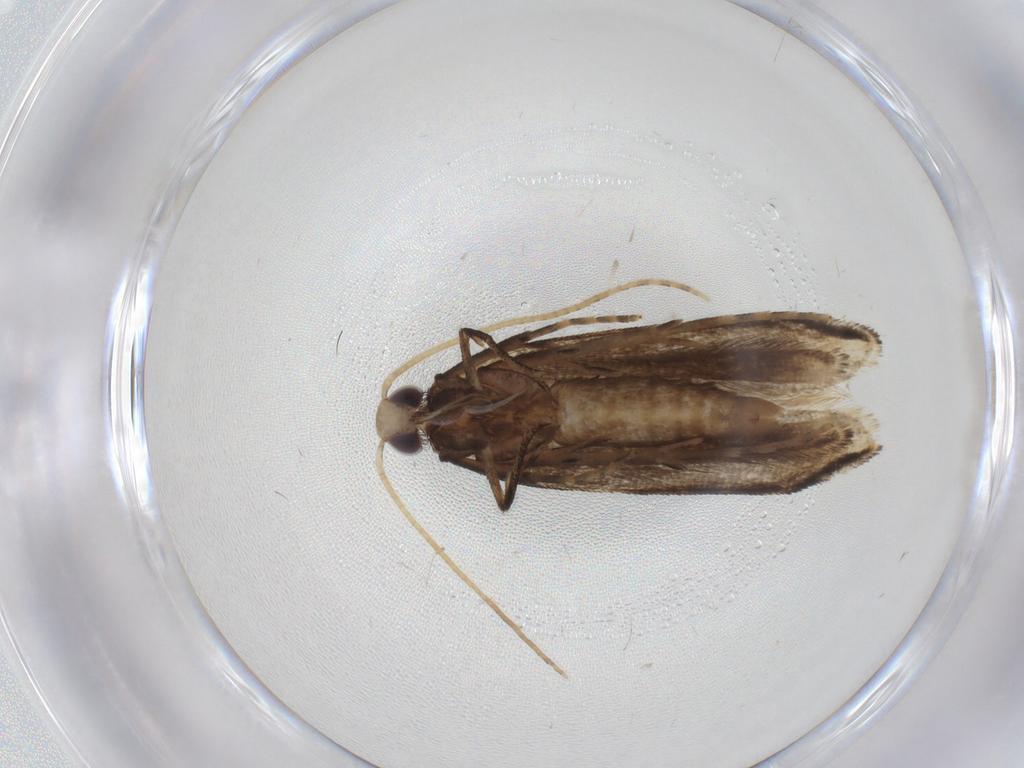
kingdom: Animalia
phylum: Arthropoda
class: Insecta
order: Lepidoptera
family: Gelechiidae
